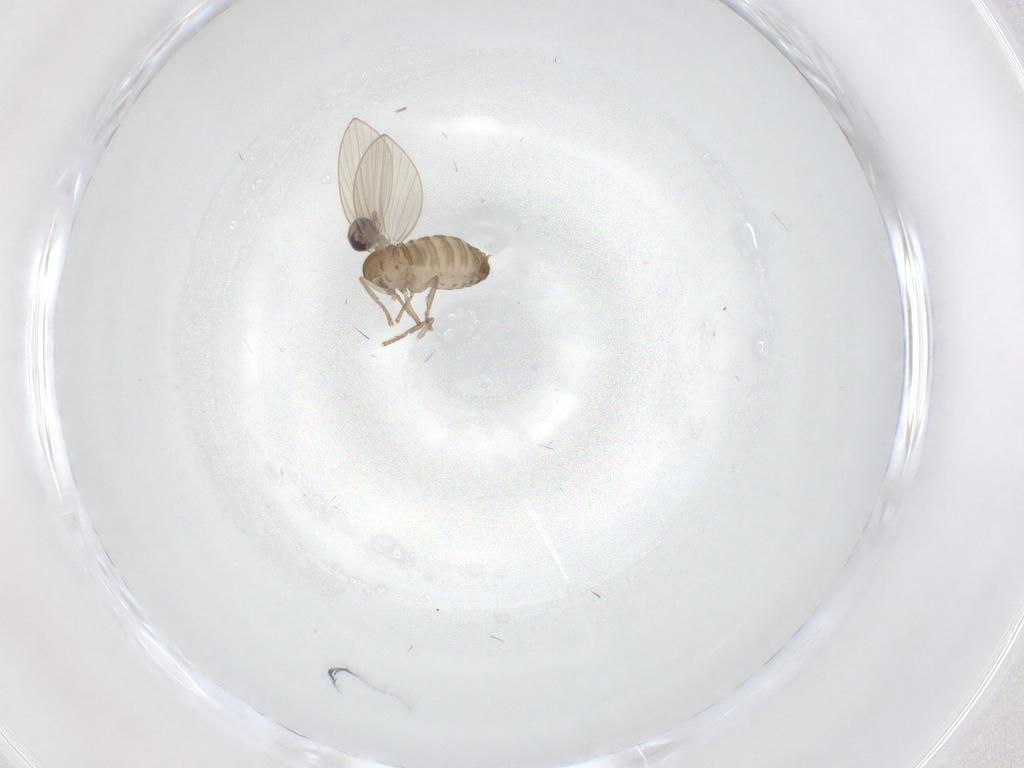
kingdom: Animalia
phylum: Arthropoda
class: Insecta
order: Diptera
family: Psychodidae
